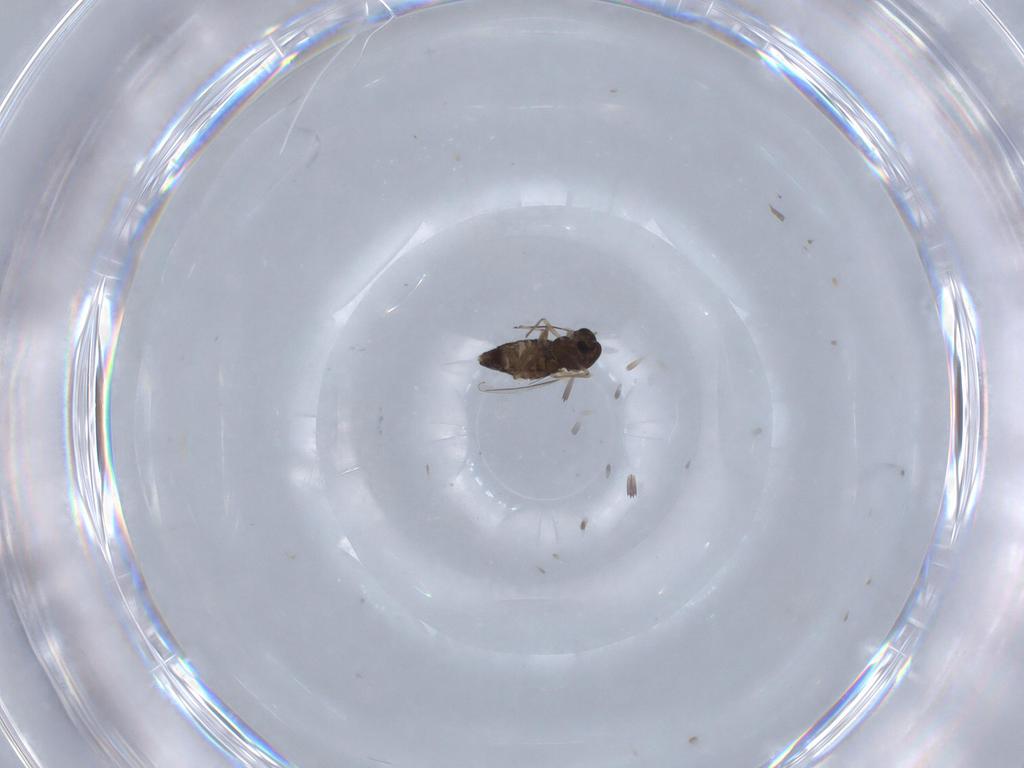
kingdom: Animalia
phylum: Arthropoda
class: Insecta
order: Diptera
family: Chironomidae
